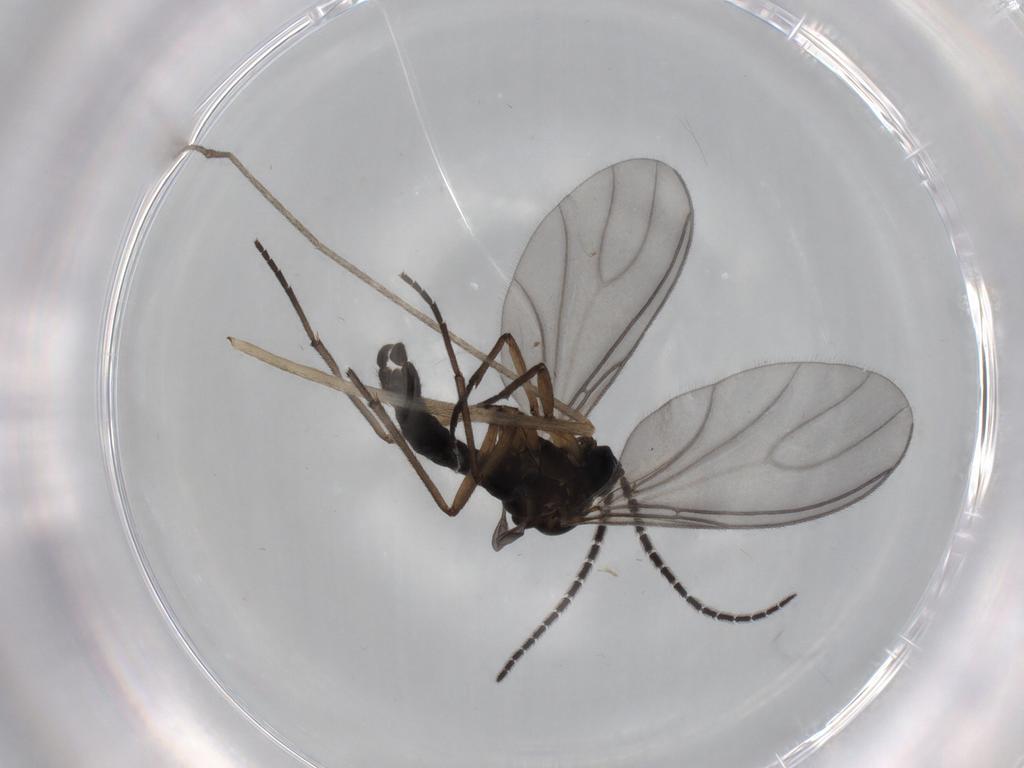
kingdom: Animalia
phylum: Arthropoda
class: Insecta
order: Diptera
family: Sciaridae
